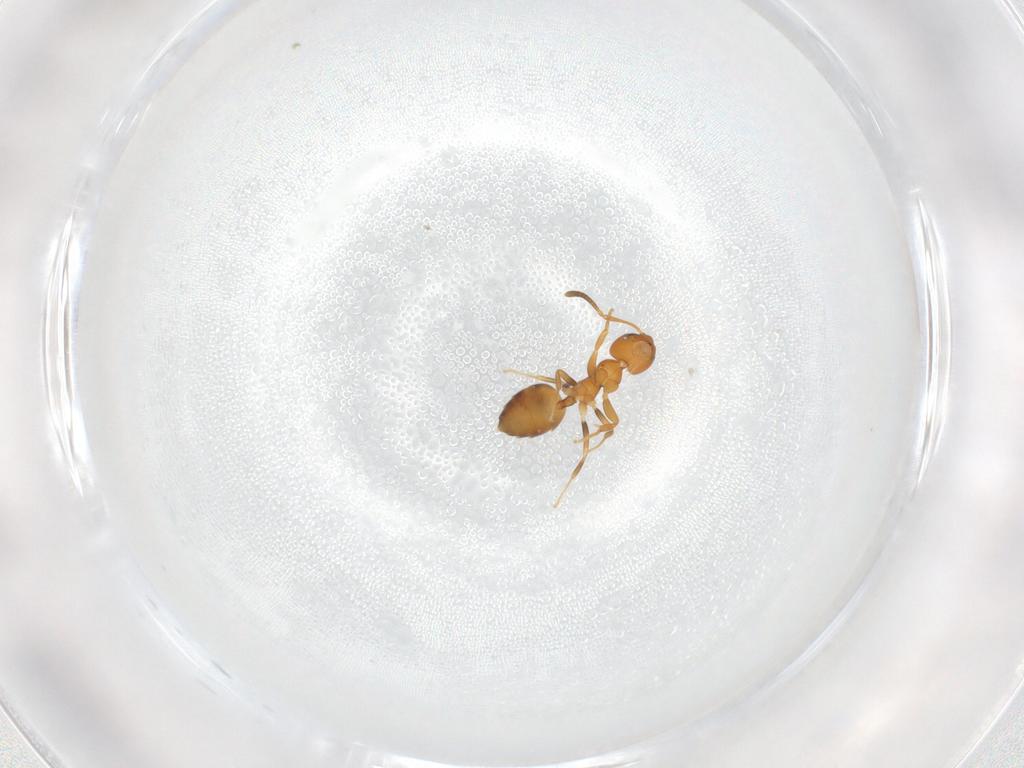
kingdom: Animalia
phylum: Arthropoda
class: Insecta
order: Hymenoptera
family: Formicidae
